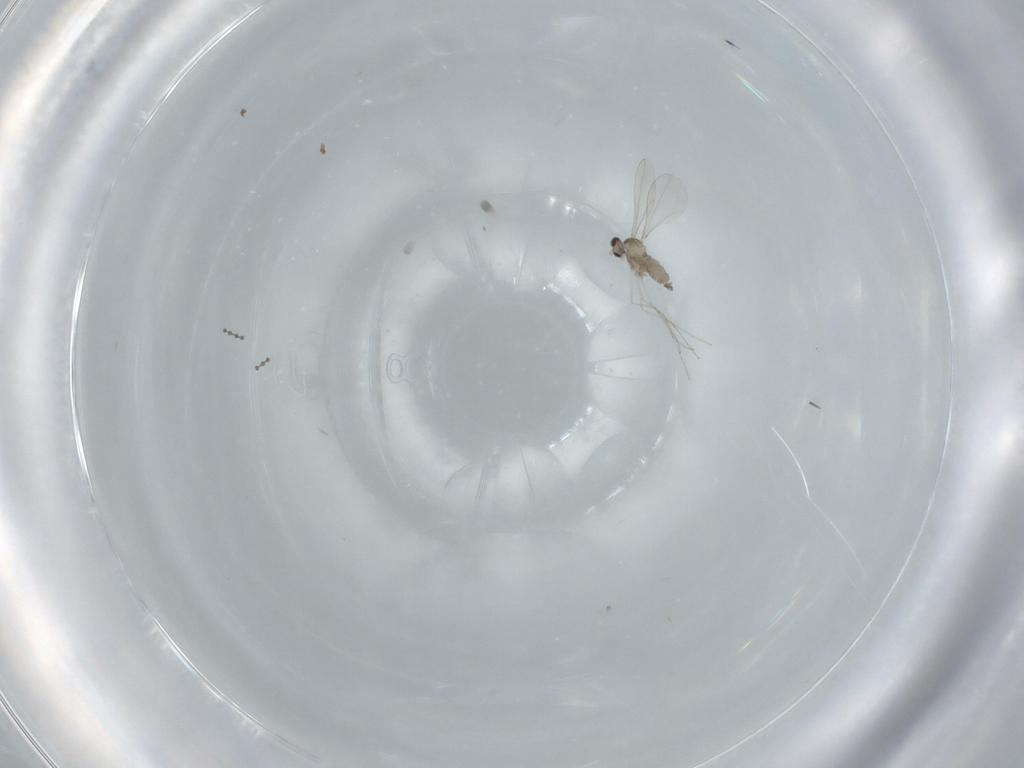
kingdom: Animalia
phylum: Arthropoda
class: Insecta
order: Diptera
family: Cecidomyiidae
